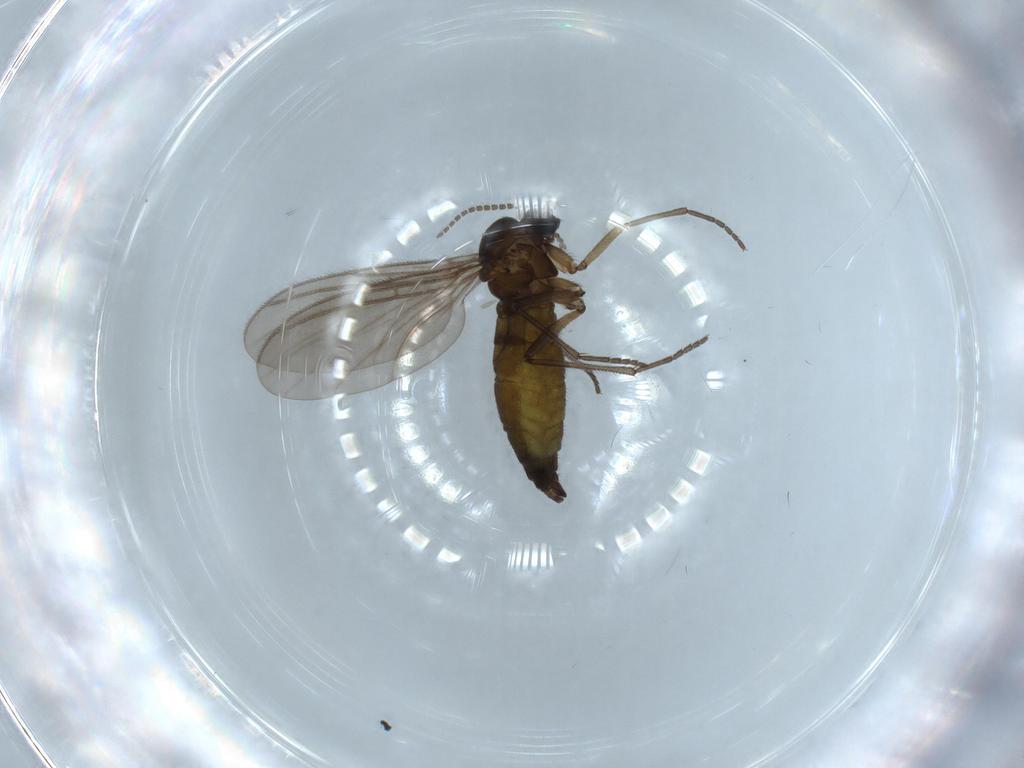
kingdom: Animalia
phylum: Arthropoda
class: Insecta
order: Diptera
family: Sciaridae
